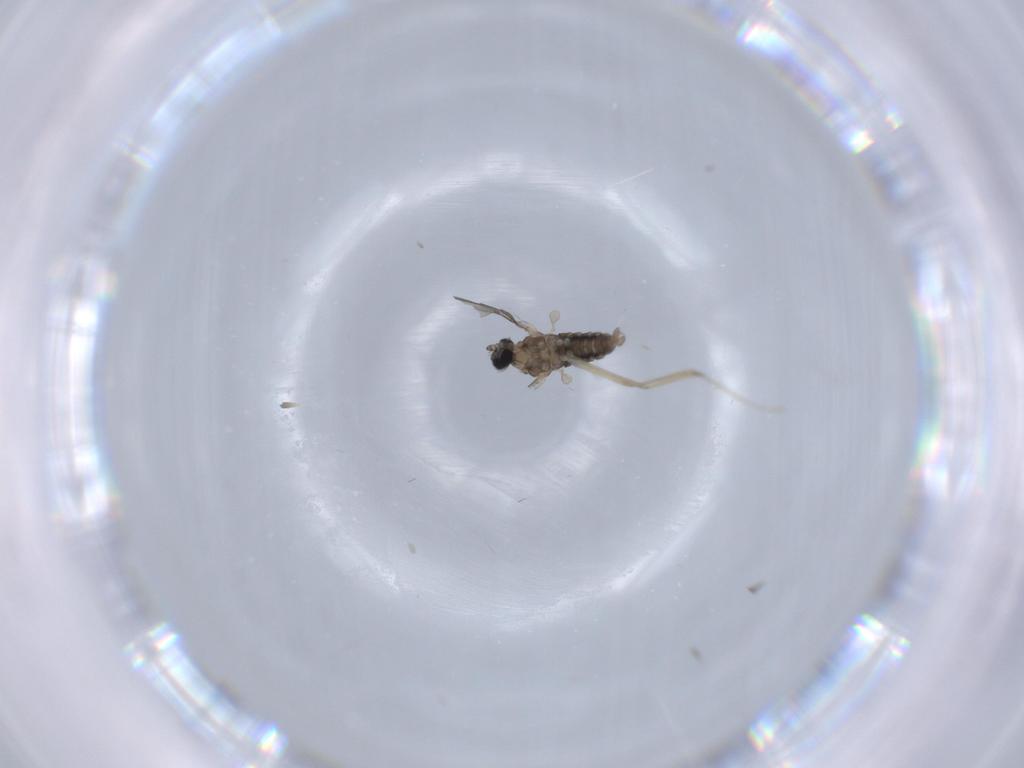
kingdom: Animalia
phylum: Arthropoda
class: Insecta
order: Diptera
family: Cecidomyiidae
